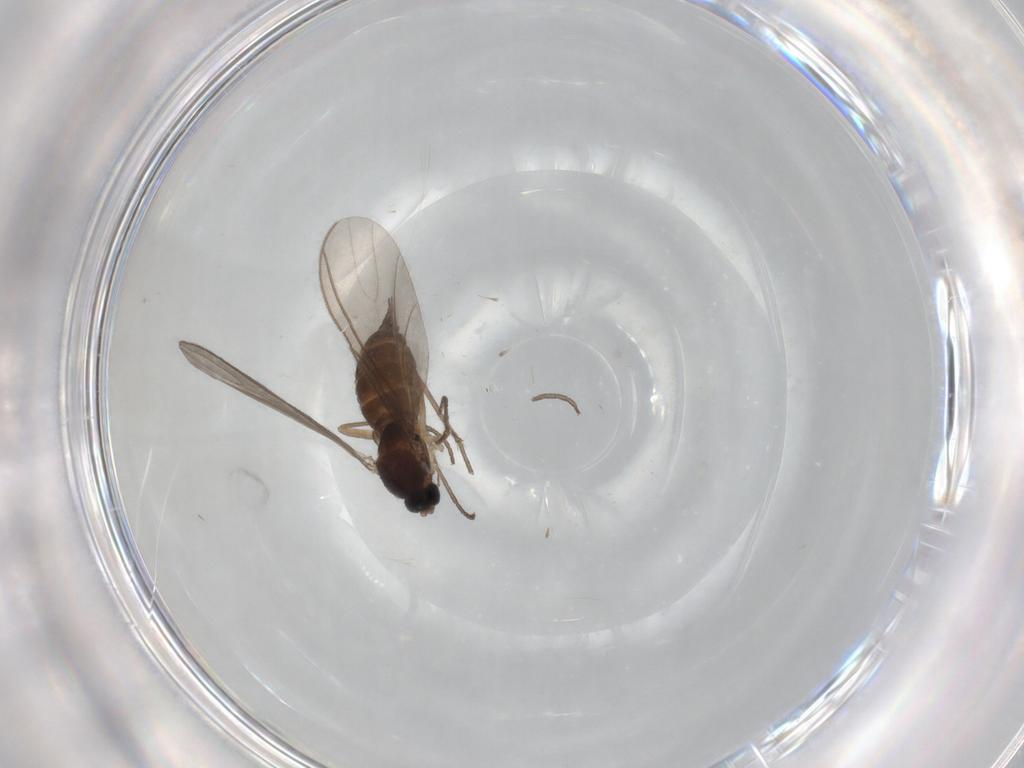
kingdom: Animalia
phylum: Arthropoda
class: Insecta
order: Diptera
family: Sciaridae
